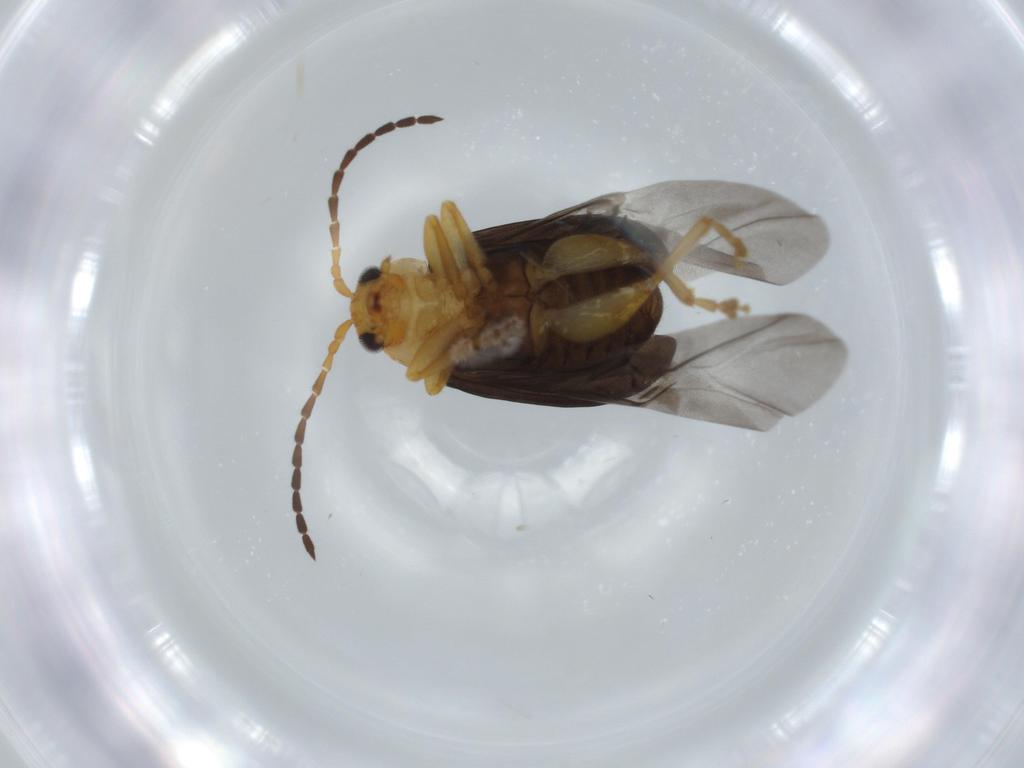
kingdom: Animalia
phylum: Arthropoda
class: Insecta
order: Coleoptera
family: Chrysomelidae
